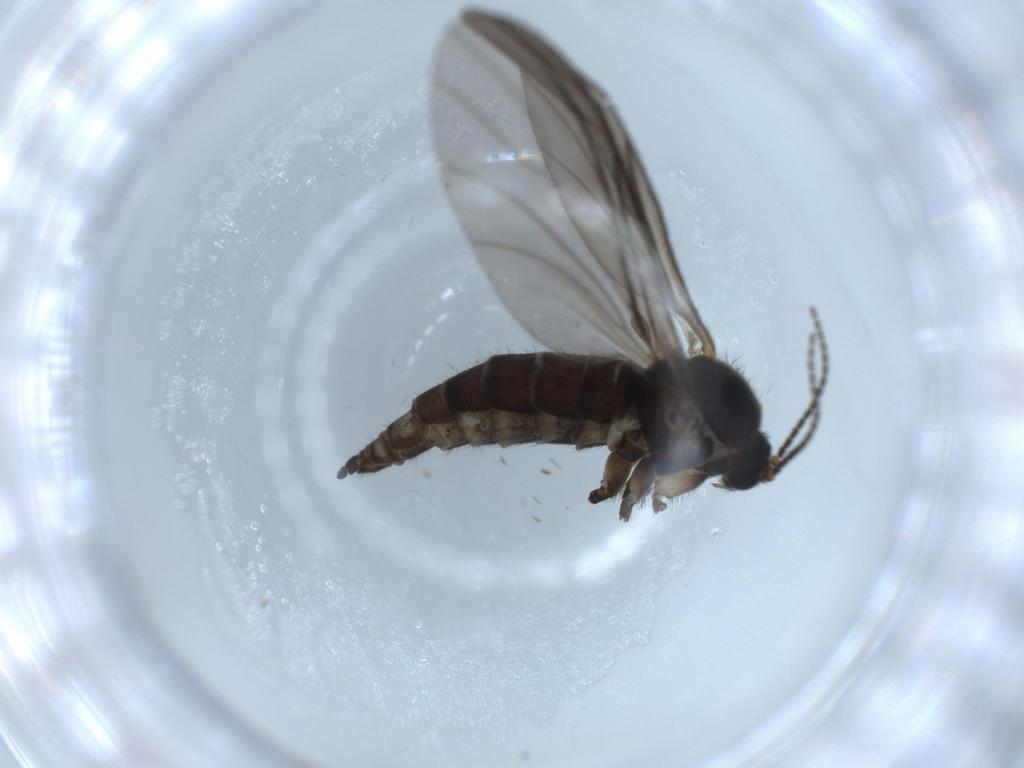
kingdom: Animalia
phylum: Arthropoda
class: Insecta
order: Diptera
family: Sciaridae
